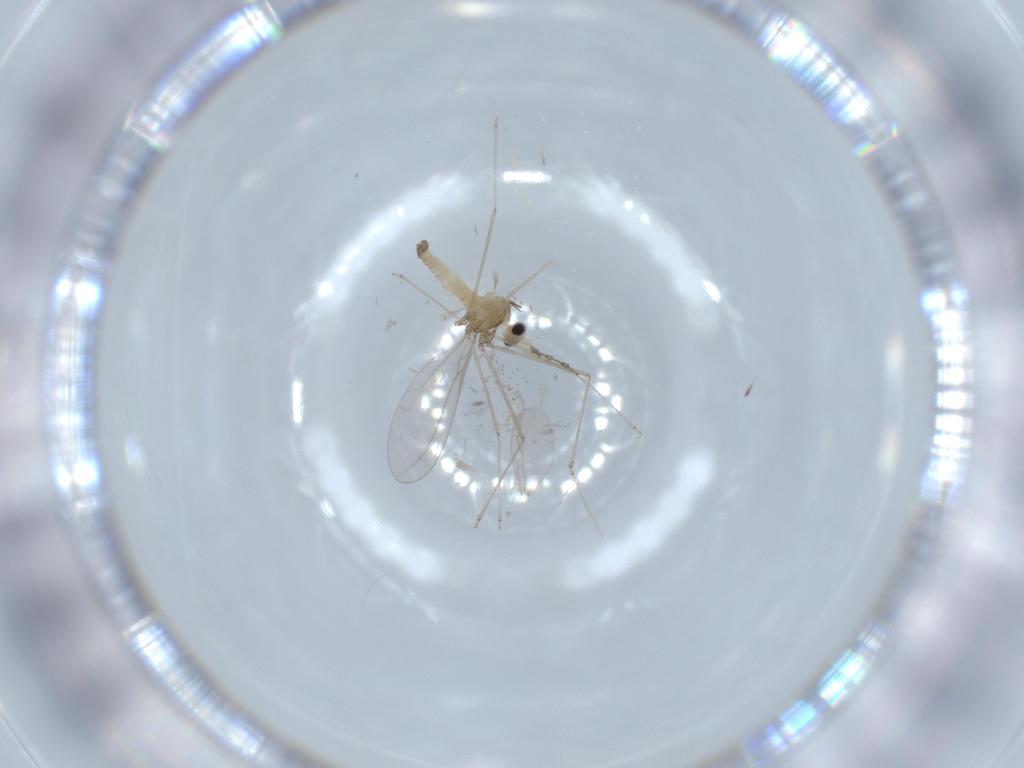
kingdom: Animalia
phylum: Arthropoda
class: Insecta
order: Diptera
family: Cecidomyiidae
